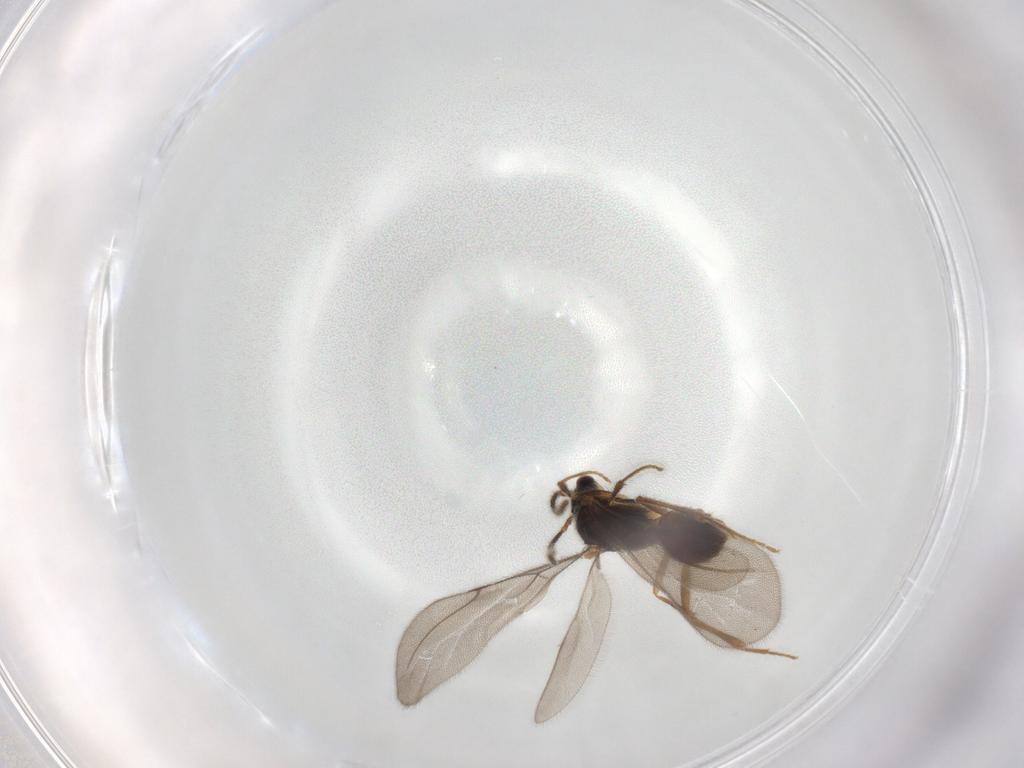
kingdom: Animalia
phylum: Arthropoda
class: Insecta
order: Hymenoptera
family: Bethylidae
